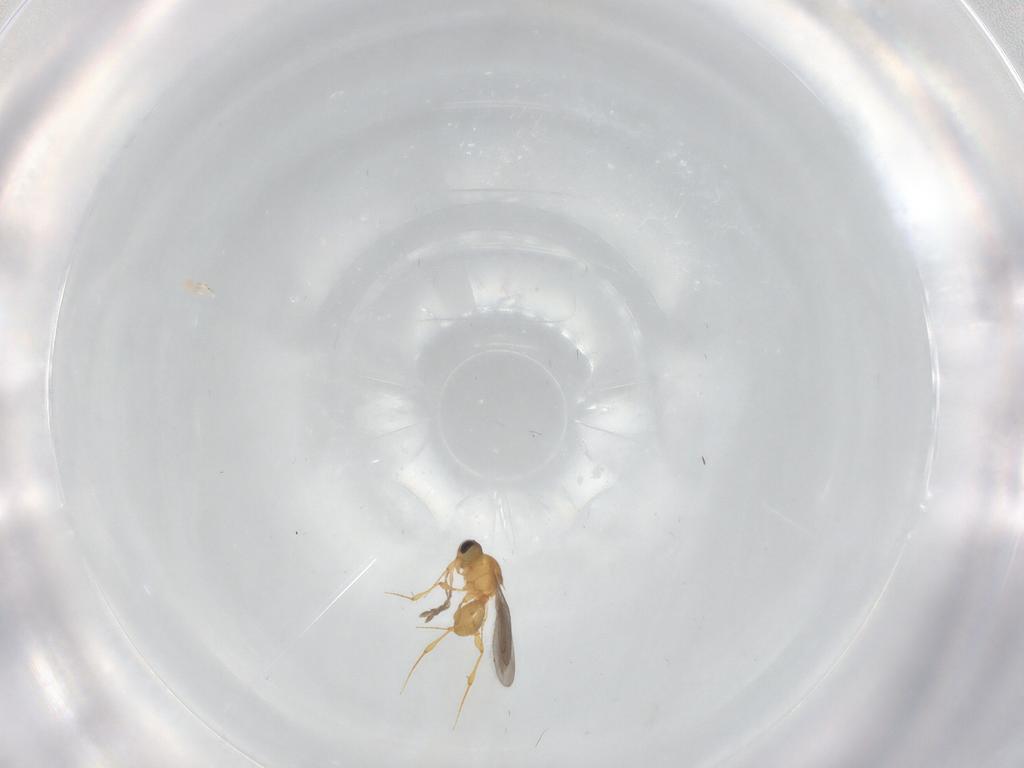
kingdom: Animalia
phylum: Arthropoda
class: Insecta
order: Hymenoptera
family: Platygastridae
